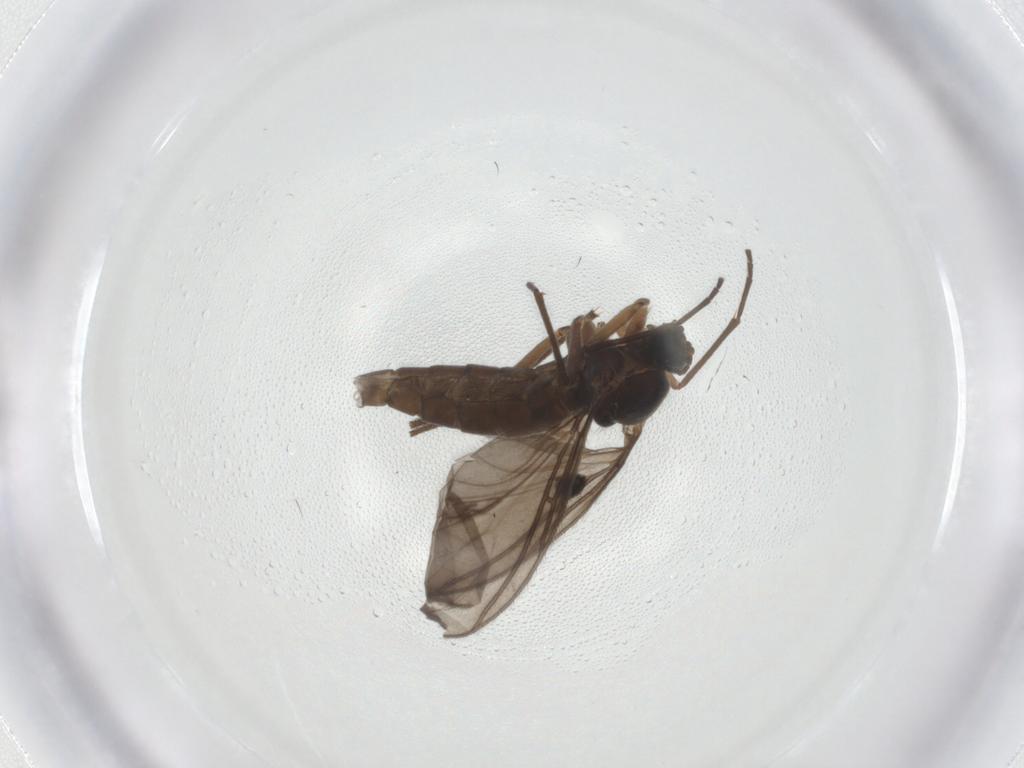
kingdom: Animalia
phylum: Arthropoda
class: Insecta
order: Diptera
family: Sciaridae
